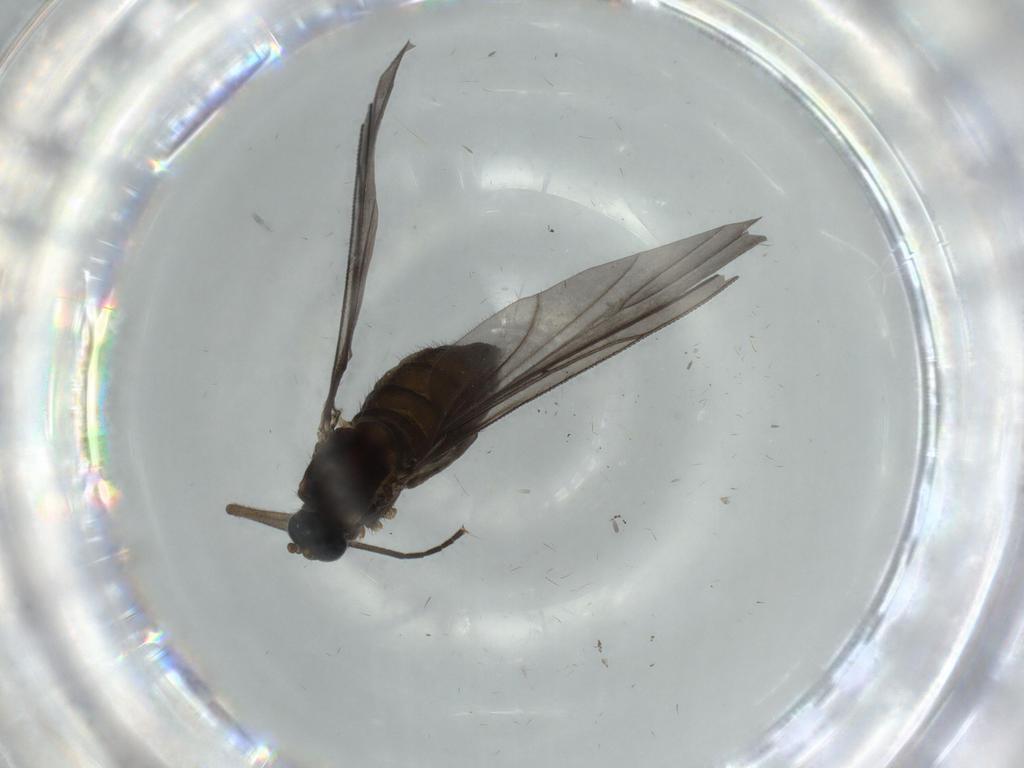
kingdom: Animalia
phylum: Arthropoda
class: Insecta
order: Diptera
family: Sciaridae
